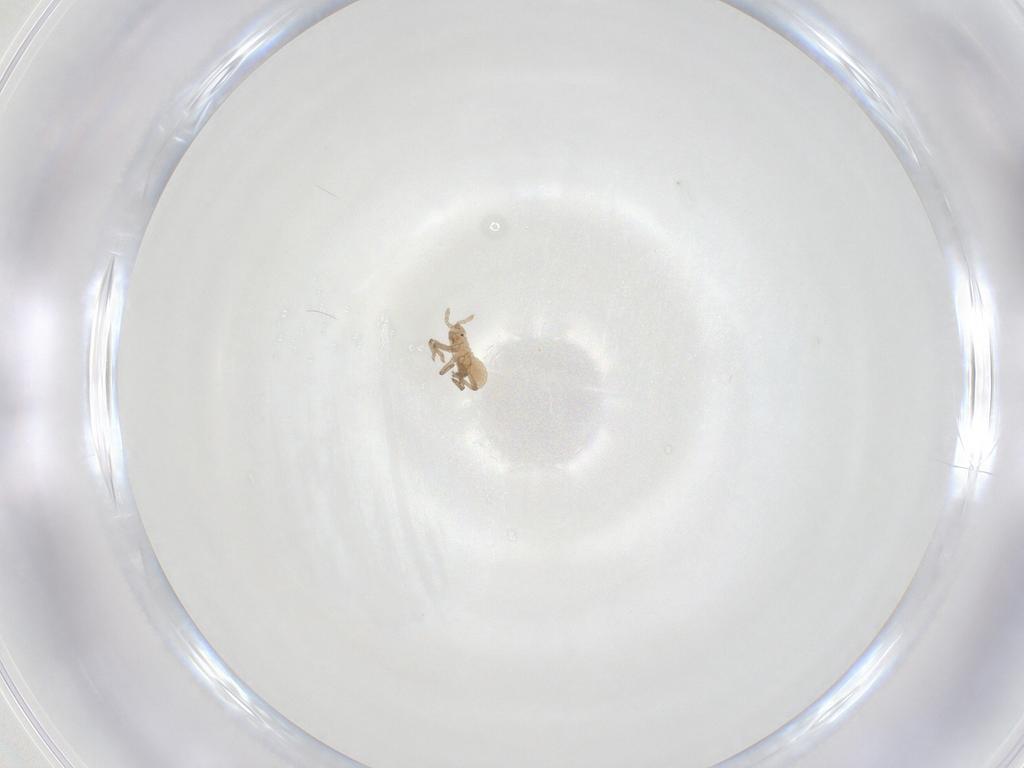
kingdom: Animalia
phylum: Arthropoda
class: Insecta
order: Hemiptera
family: Aphididae
